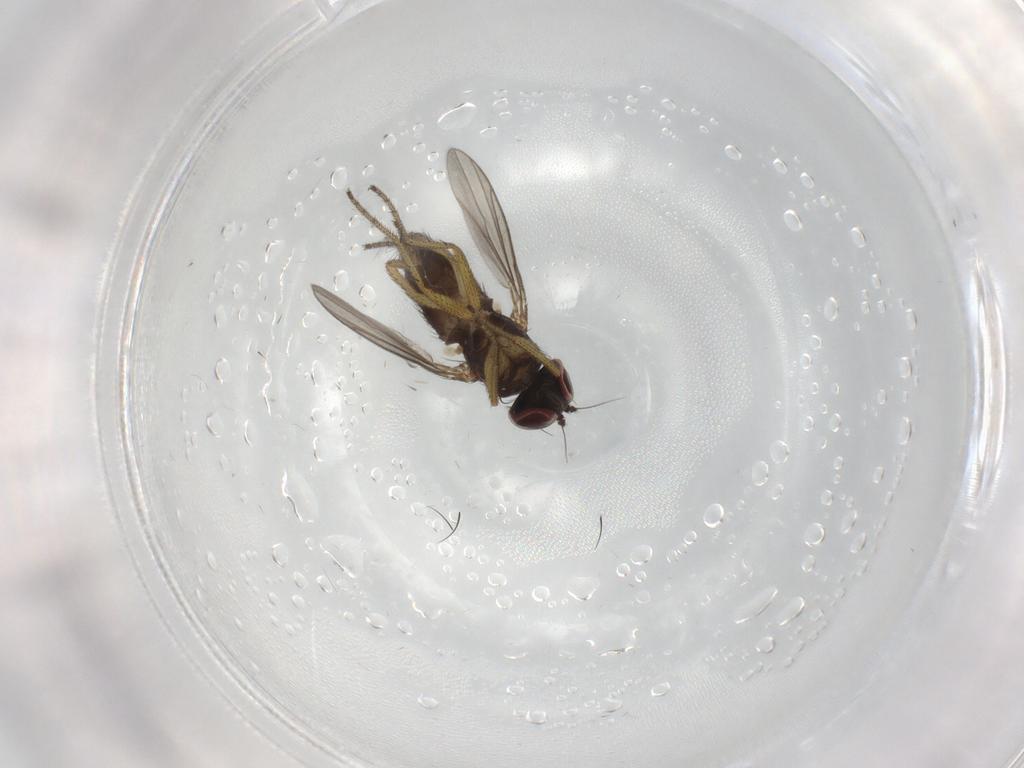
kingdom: Animalia
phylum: Arthropoda
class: Insecta
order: Diptera
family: Dolichopodidae
